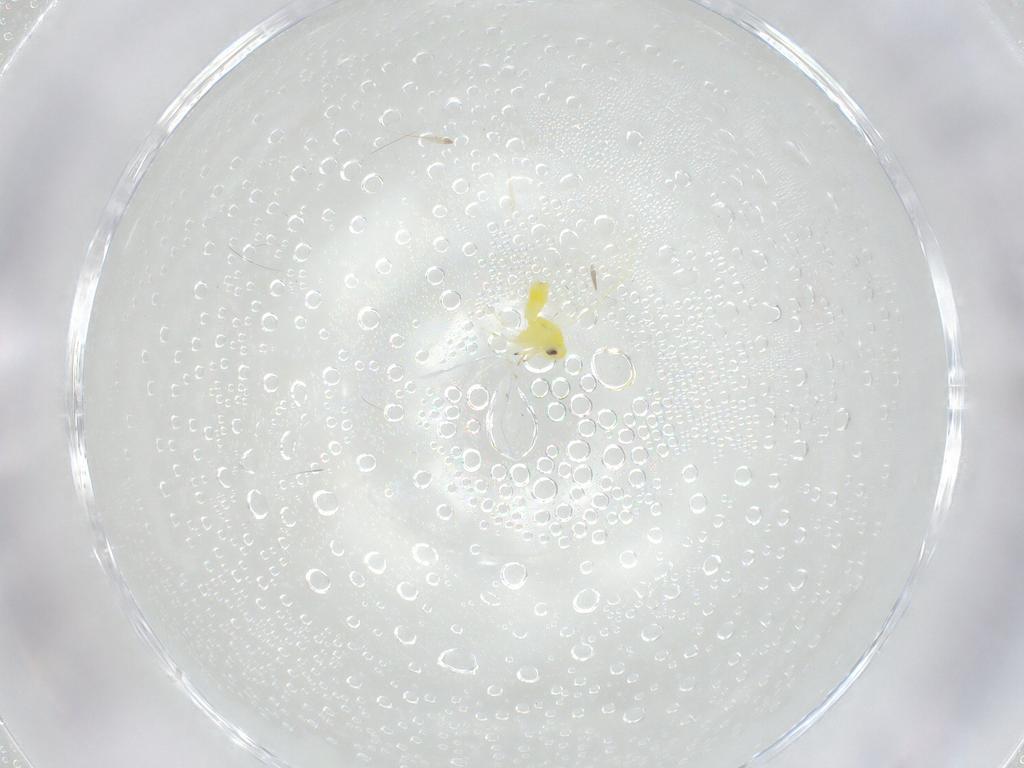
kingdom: Animalia
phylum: Arthropoda
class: Insecta
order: Hemiptera
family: Aleyrodidae
